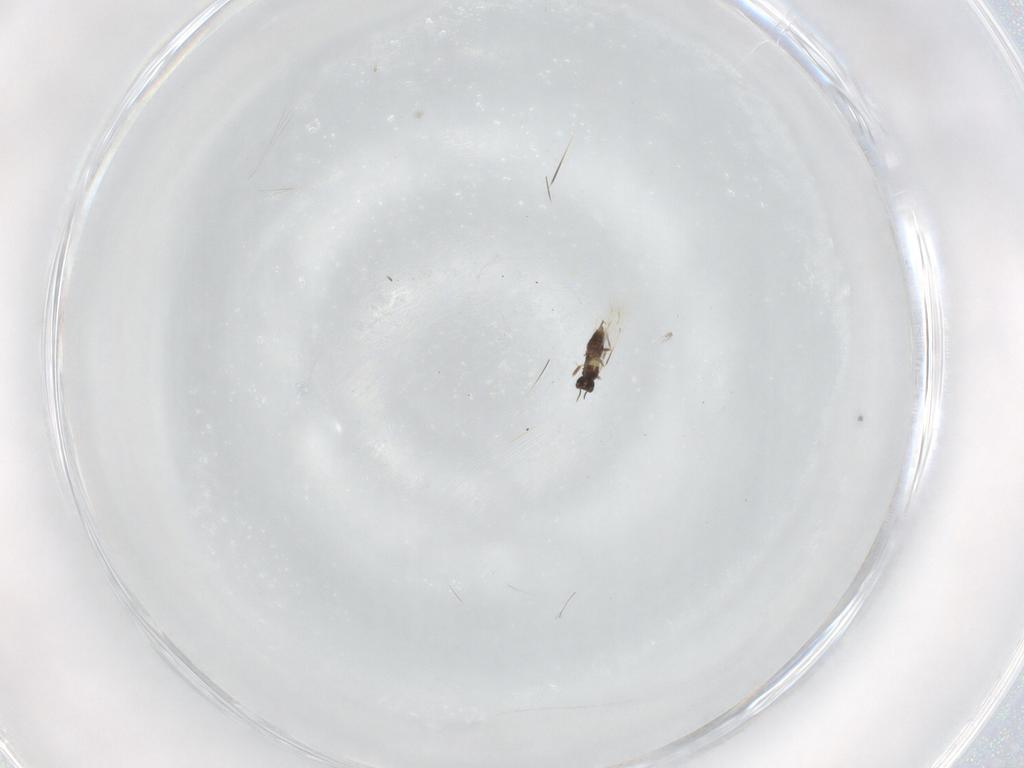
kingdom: Animalia
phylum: Arthropoda
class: Insecta
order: Hymenoptera
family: Mymaridae
